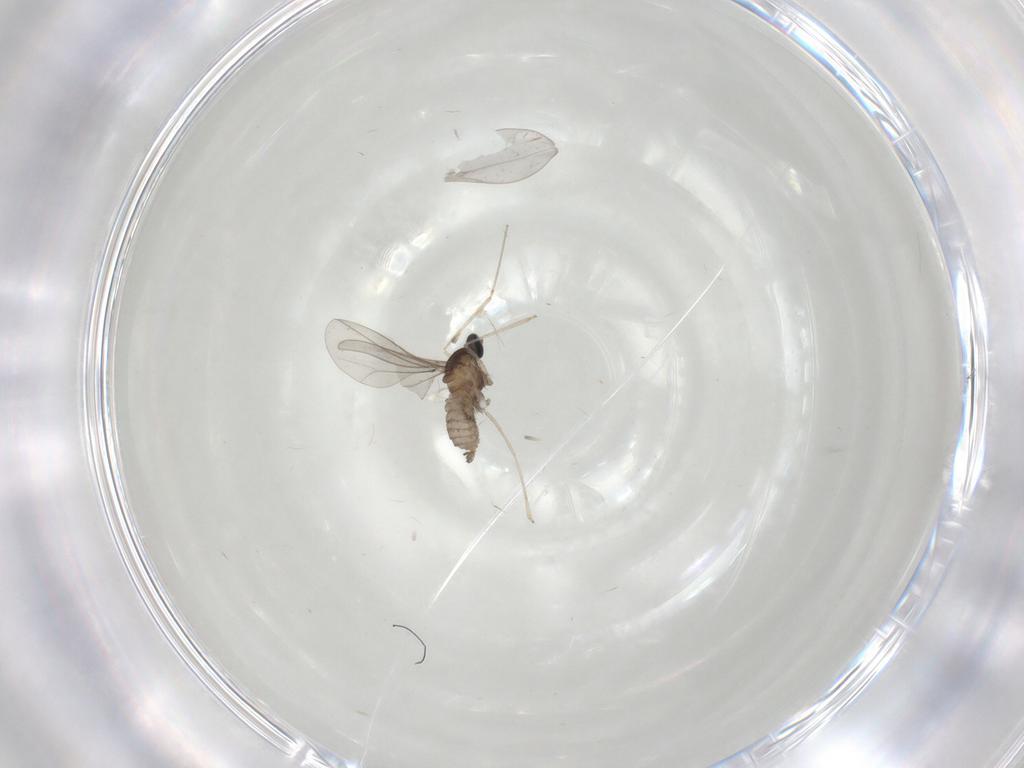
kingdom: Animalia
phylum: Arthropoda
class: Insecta
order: Diptera
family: Cecidomyiidae
